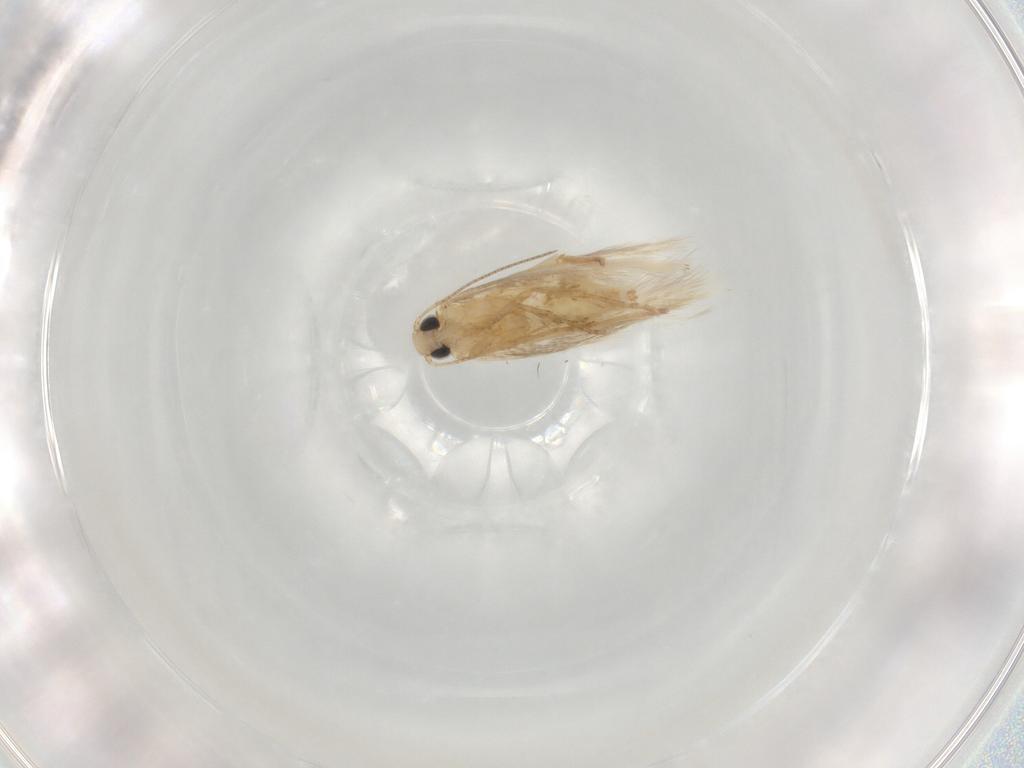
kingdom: Animalia
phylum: Arthropoda
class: Insecta
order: Lepidoptera
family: Tischeriidae
